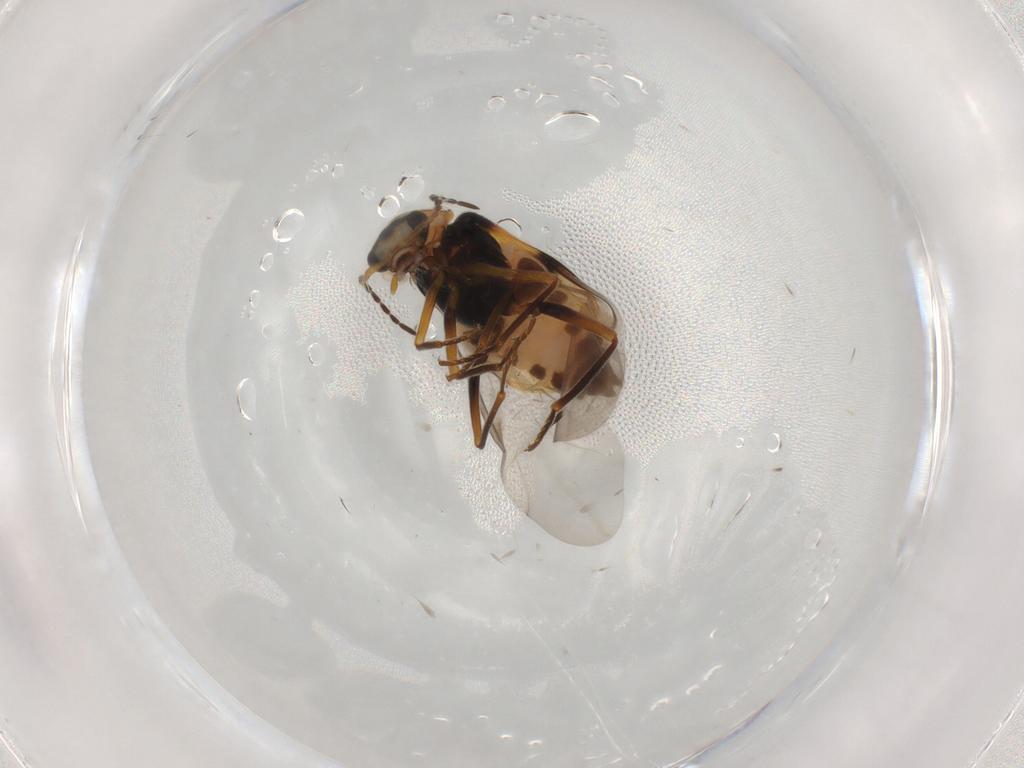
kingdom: Animalia
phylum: Arthropoda
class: Insecta
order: Coleoptera
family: Melyridae
